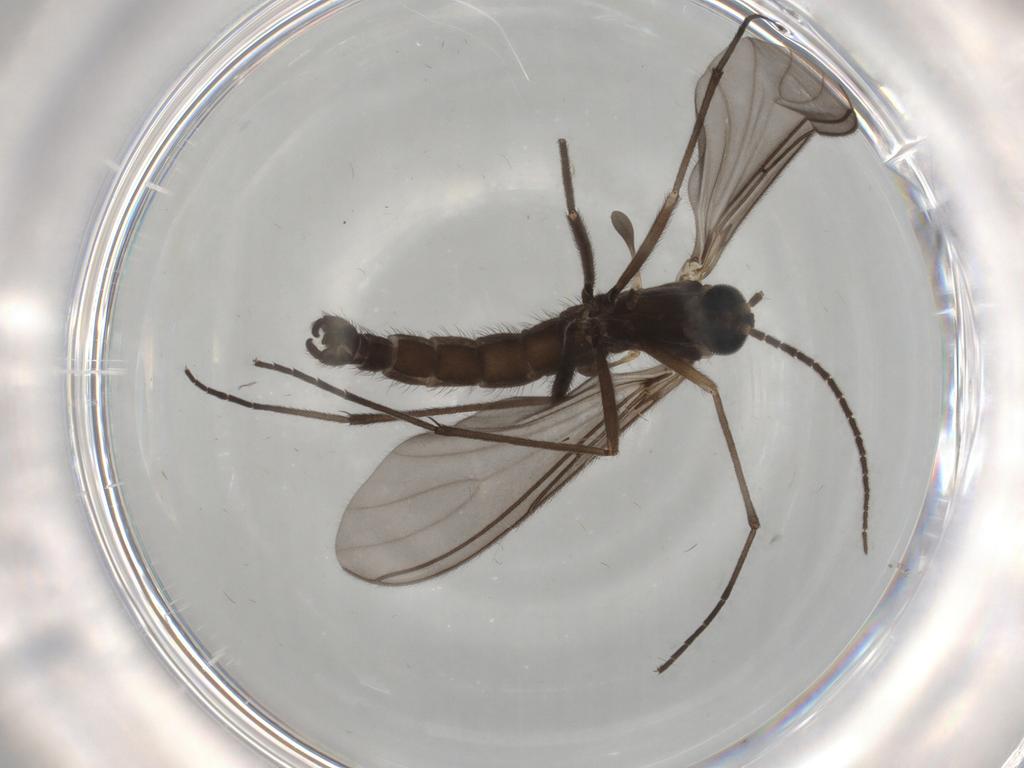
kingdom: Animalia
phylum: Arthropoda
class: Insecta
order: Diptera
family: Sciaridae
